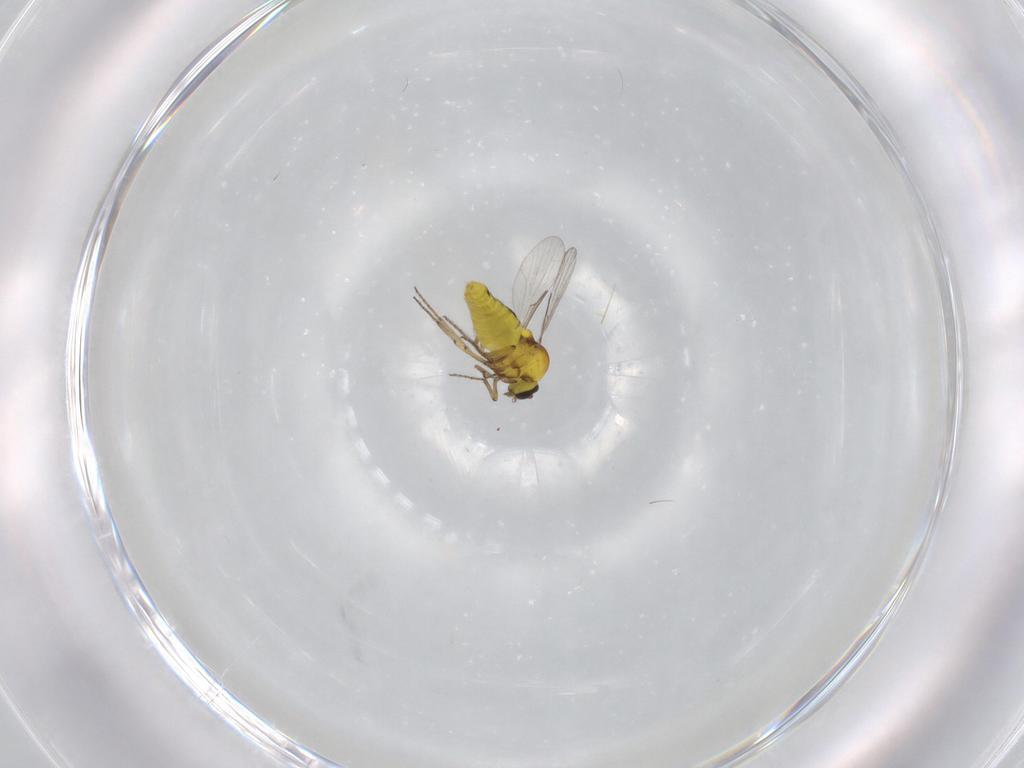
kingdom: Animalia
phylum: Arthropoda
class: Insecta
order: Diptera
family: Ceratopogonidae
